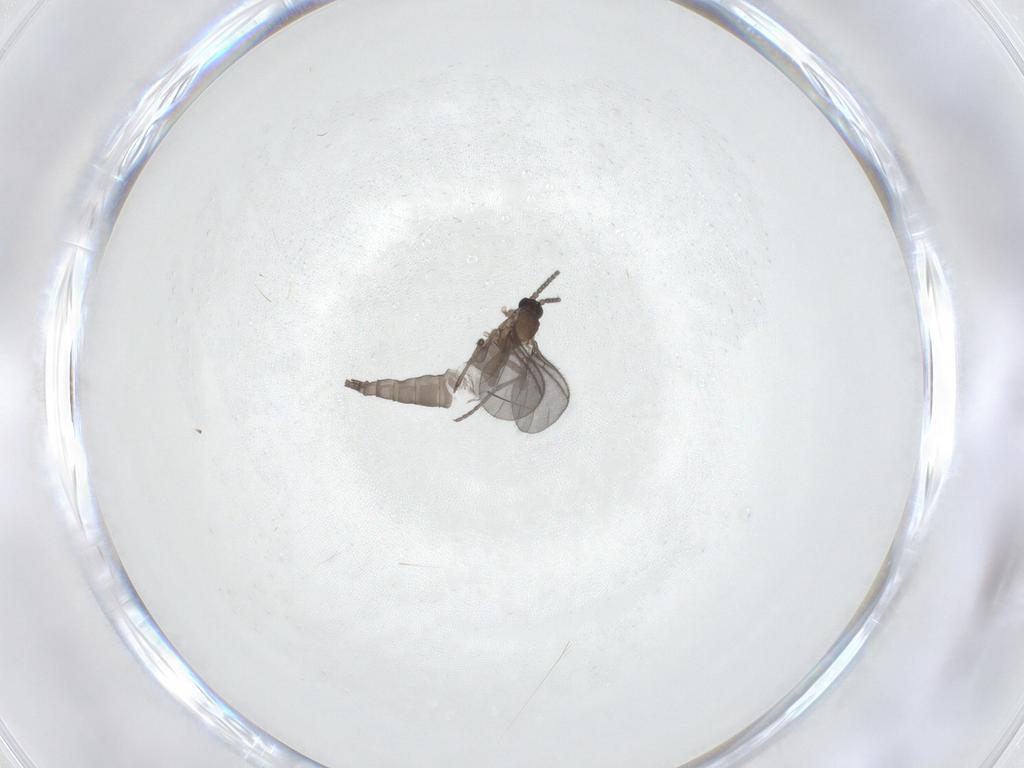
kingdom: Animalia
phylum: Arthropoda
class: Insecta
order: Diptera
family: Sciaridae
